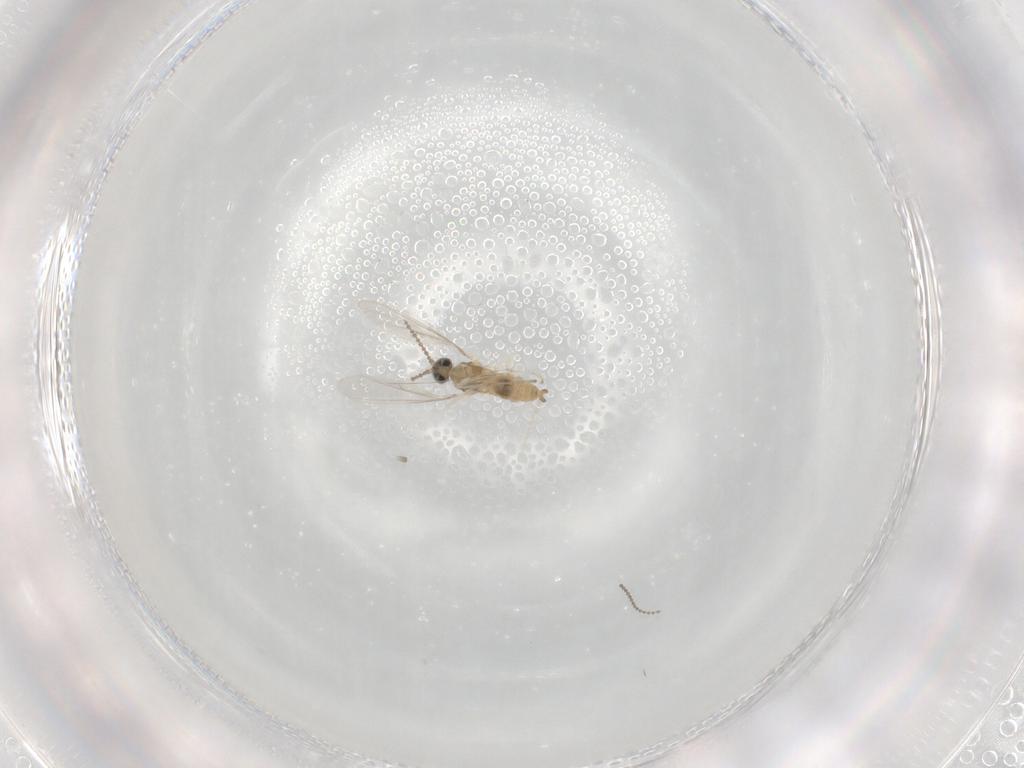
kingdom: Animalia
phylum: Arthropoda
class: Insecta
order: Diptera
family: Cecidomyiidae
